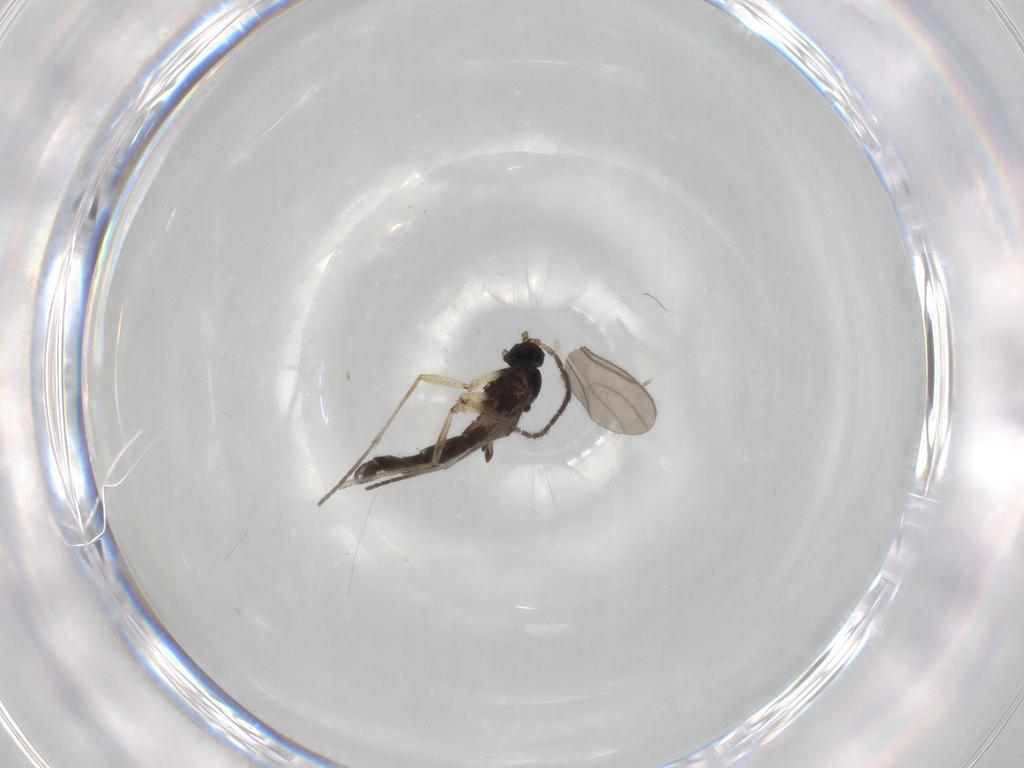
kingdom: Animalia
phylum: Arthropoda
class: Insecta
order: Diptera
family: Sciaridae
